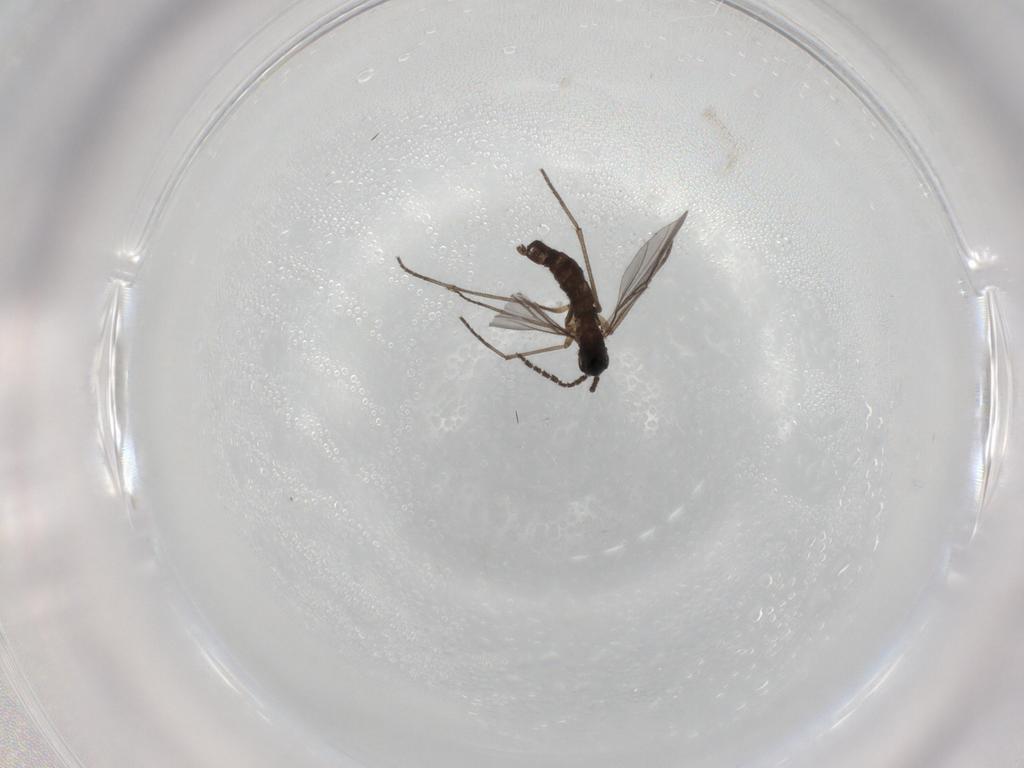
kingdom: Animalia
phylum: Arthropoda
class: Insecta
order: Diptera
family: Sciaridae
